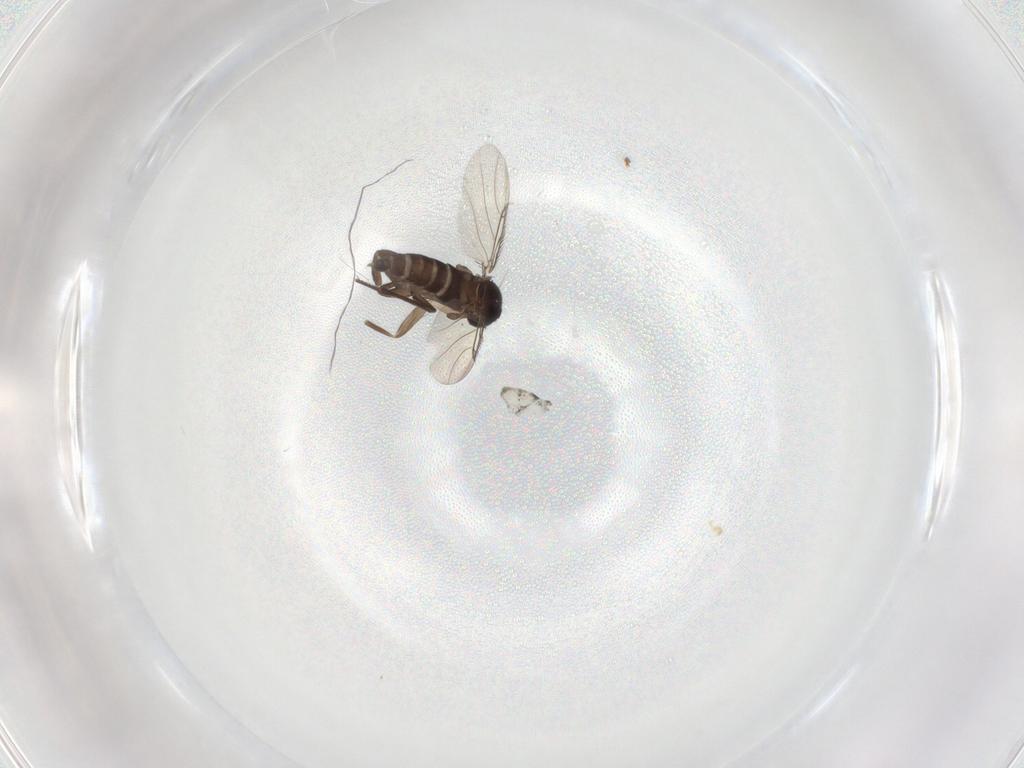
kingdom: Animalia
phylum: Arthropoda
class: Insecta
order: Diptera
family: Phoridae
